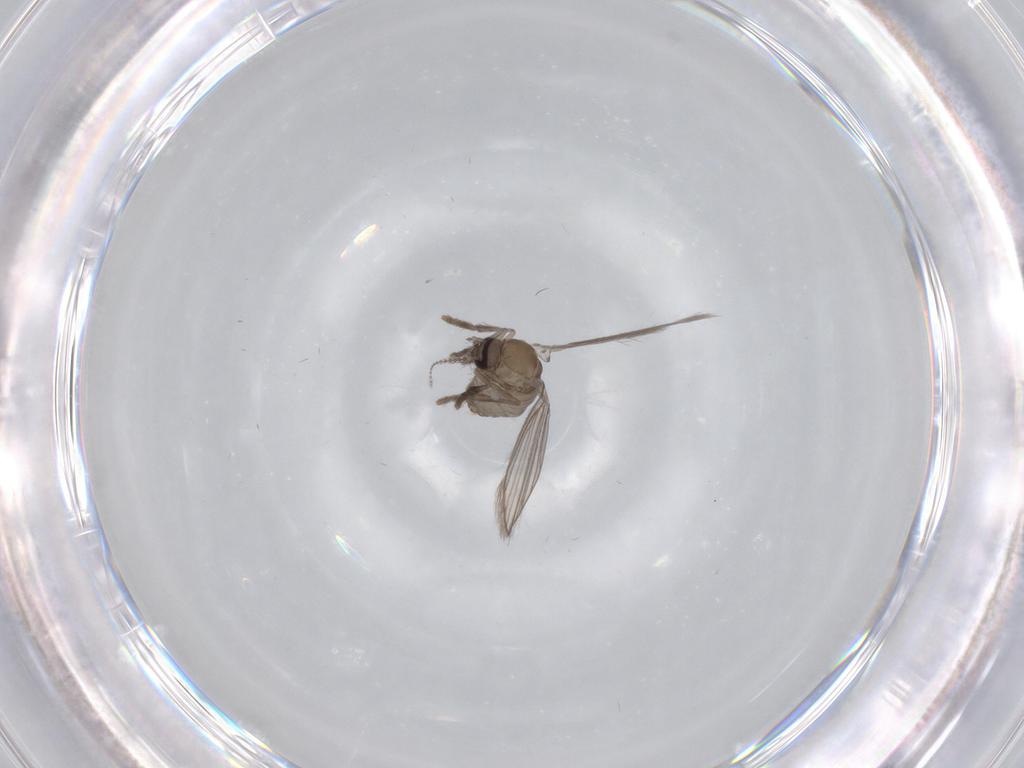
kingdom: Animalia
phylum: Arthropoda
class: Insecta
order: Diptera
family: Psychodidae
